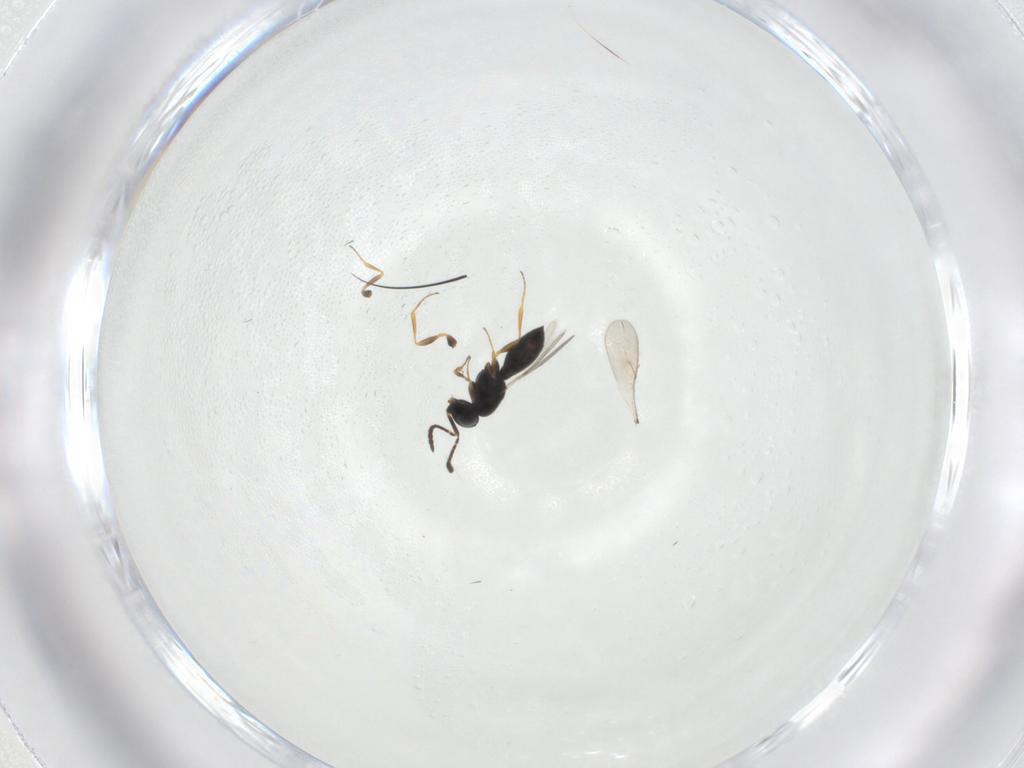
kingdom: Animalia
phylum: Arthropoda
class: Insecta
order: Hymenoptera
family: Scelionidae
